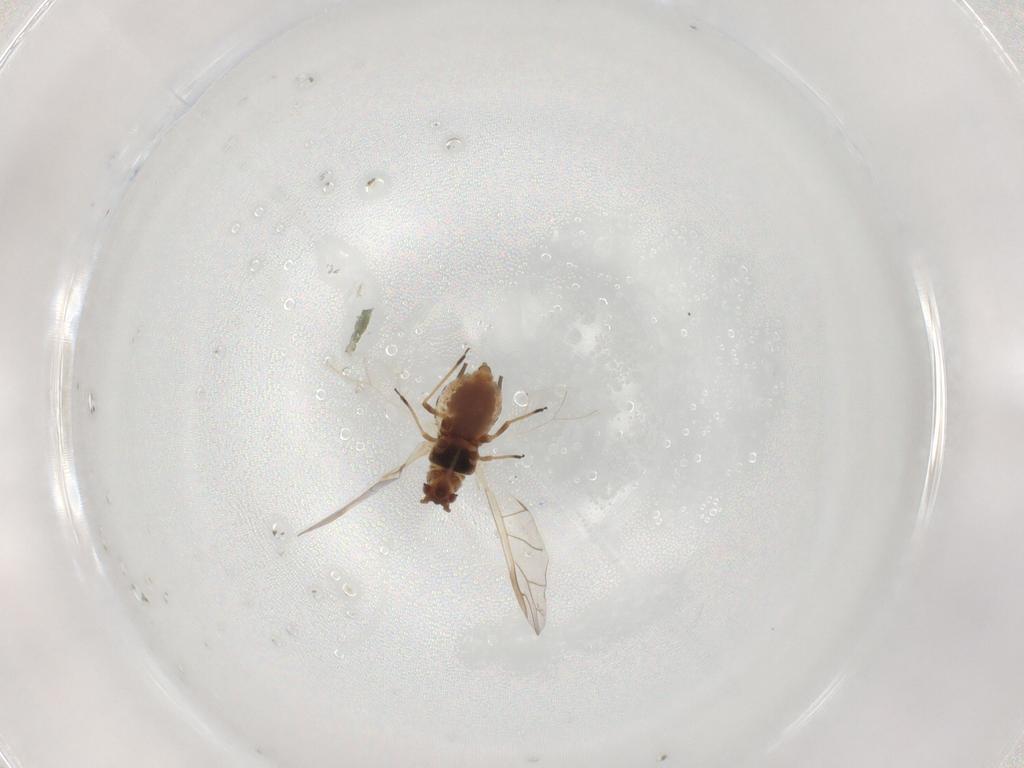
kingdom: Animalia
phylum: Arthropoda
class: Insecta
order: Hemiptera
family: Aphididae
